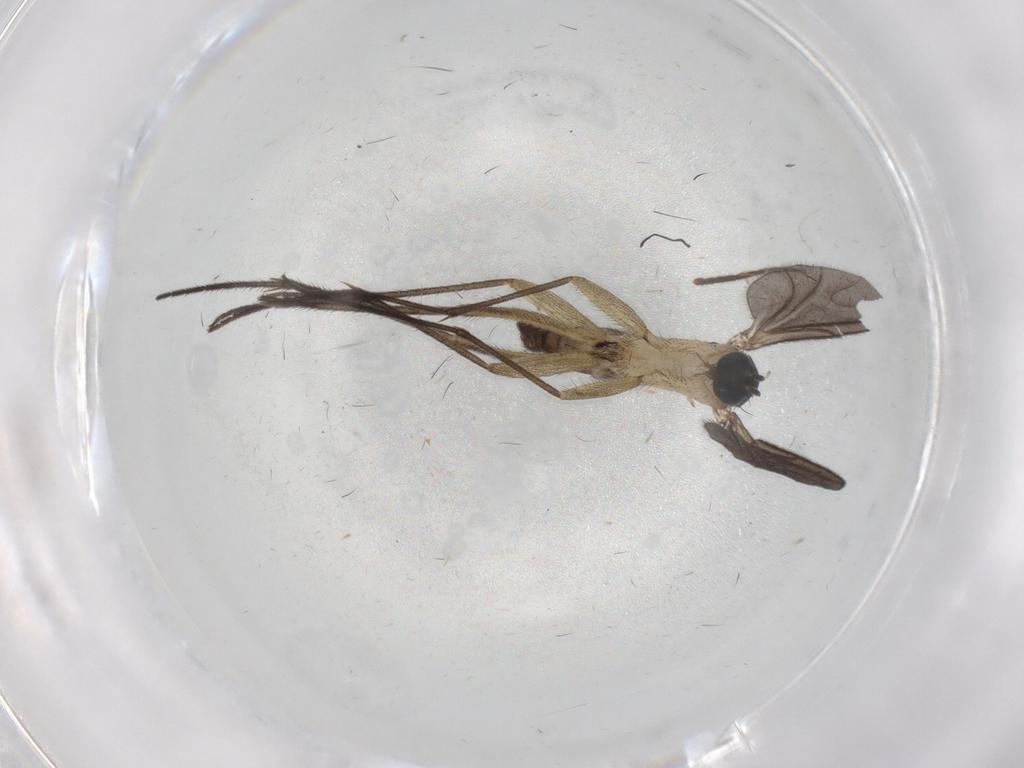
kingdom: Animalia
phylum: Arthropoda
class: Insecta
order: Diptera
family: Sciaridae
